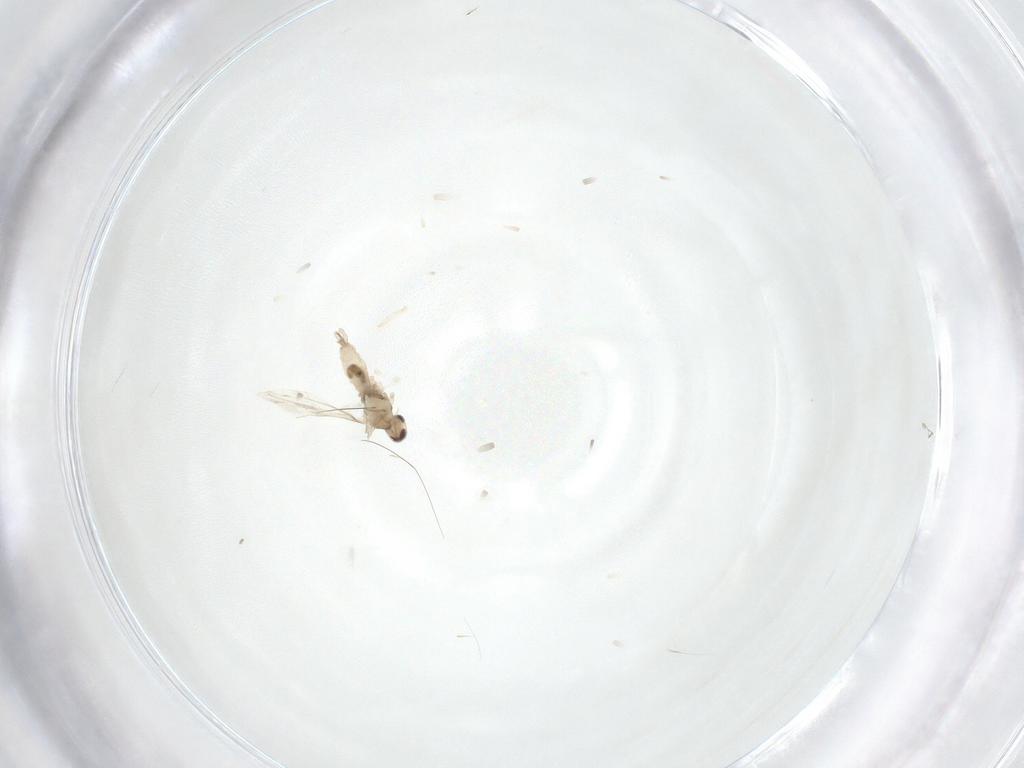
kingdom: Animalia
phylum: Arthropoda
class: Insecta
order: Diptera
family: Cecidomyiidae
